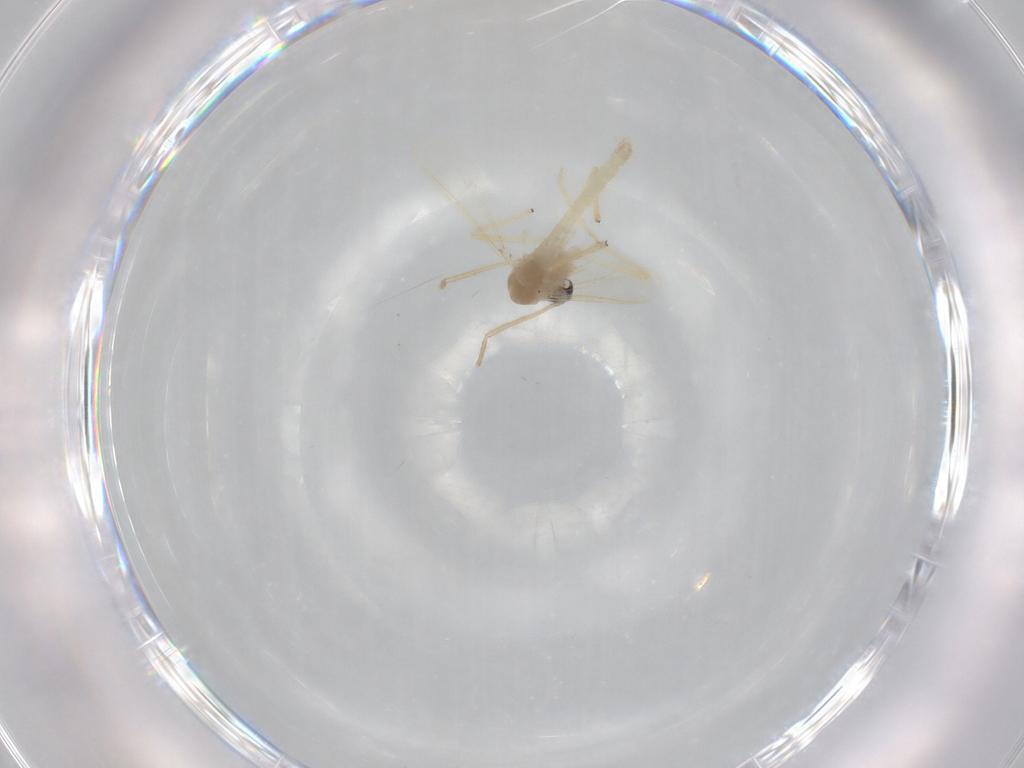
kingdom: Animalia
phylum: Arthropoda
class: Insecta
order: Diptera
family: Chironomidae
